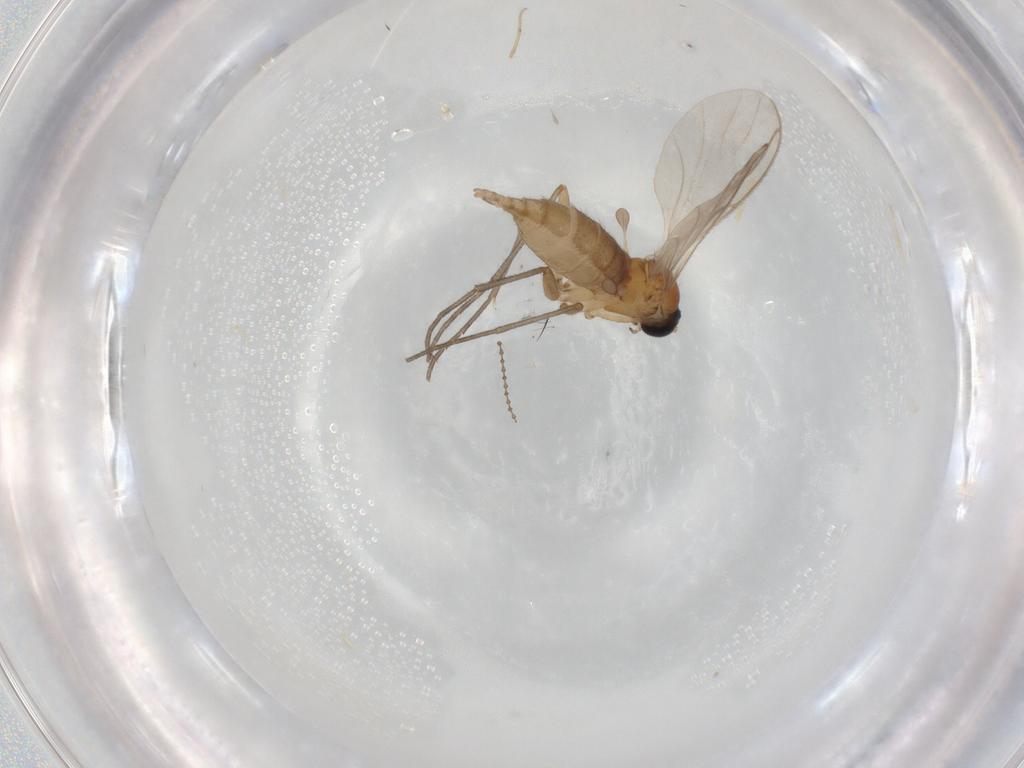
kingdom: Animalia
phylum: Arthropoda
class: Insecta
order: Diptera
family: Sciaridae
